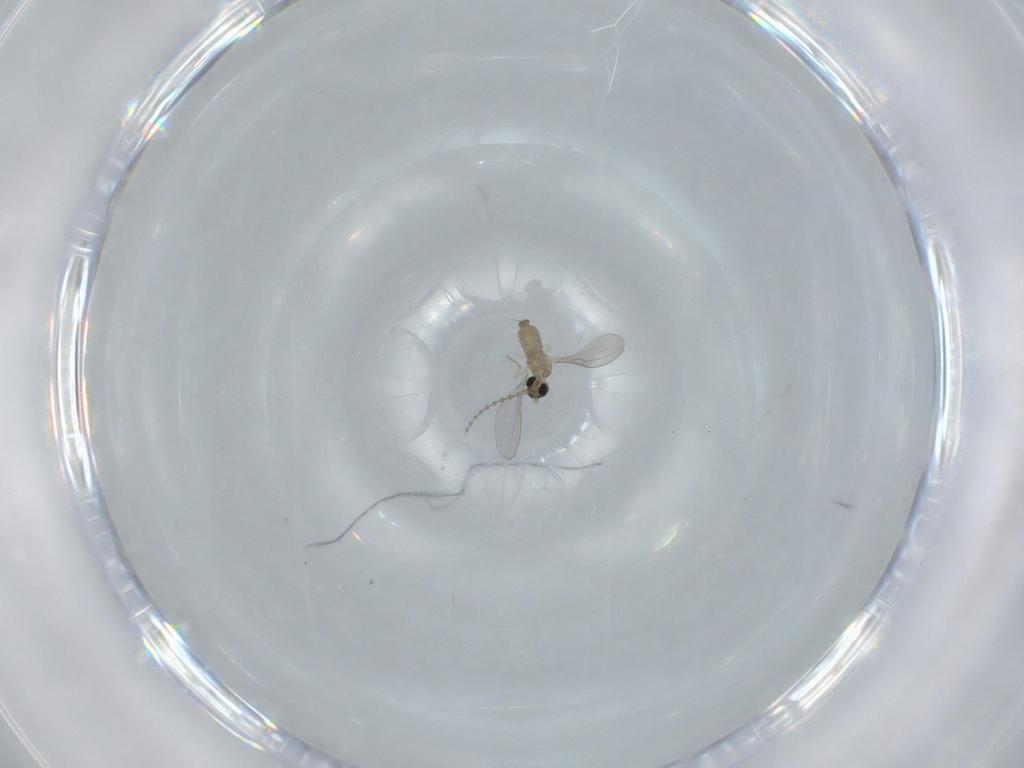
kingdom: Animalia
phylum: Arthropoda
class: Insecta
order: Diptera
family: Cecidomyiidae
